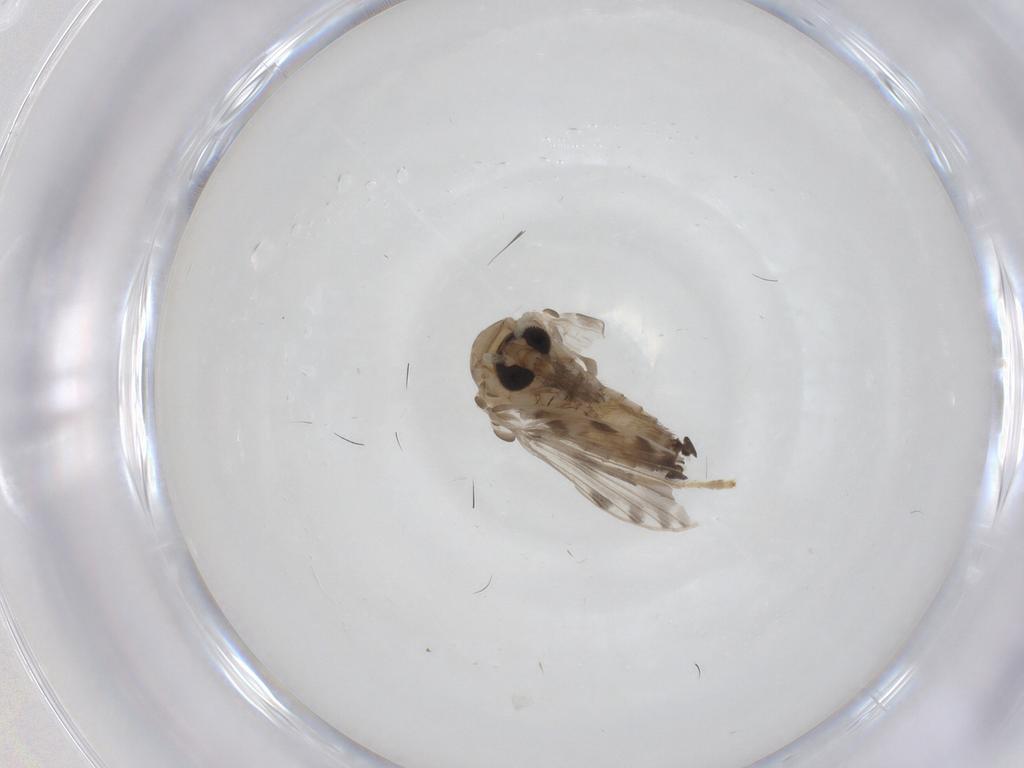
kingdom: Animalia
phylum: Arthropoda
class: Insecta
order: Diptera
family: Psychodidae
